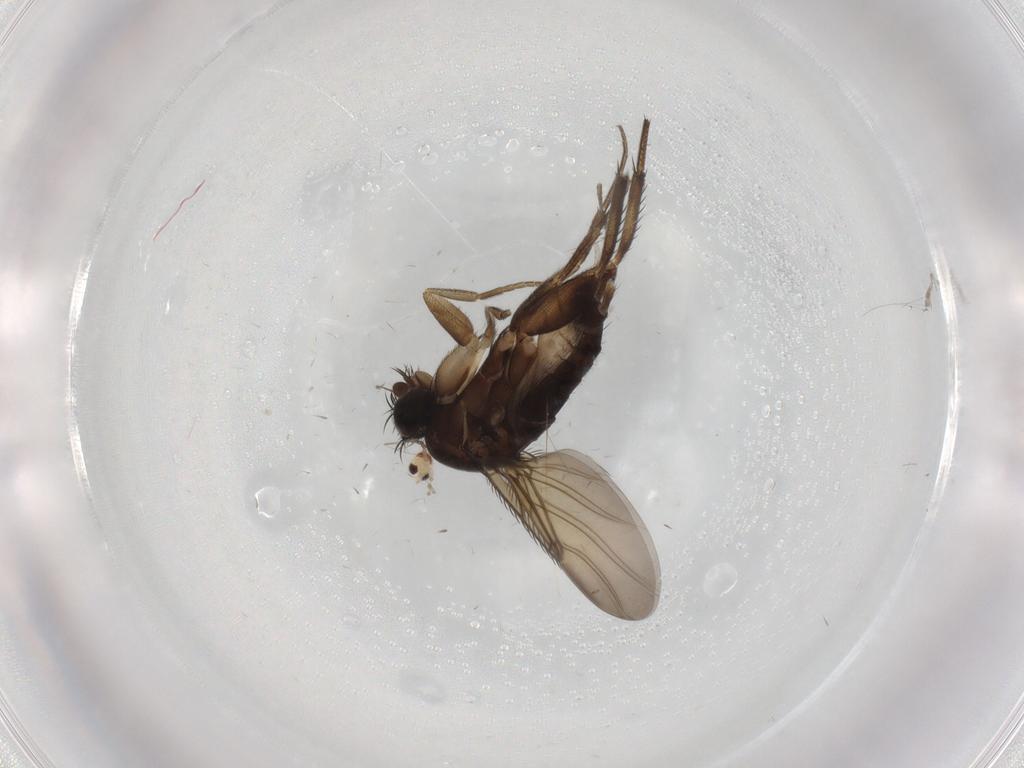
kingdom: Animalia
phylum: Arthropoda
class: Insecta
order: Diptera
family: Phoridae
